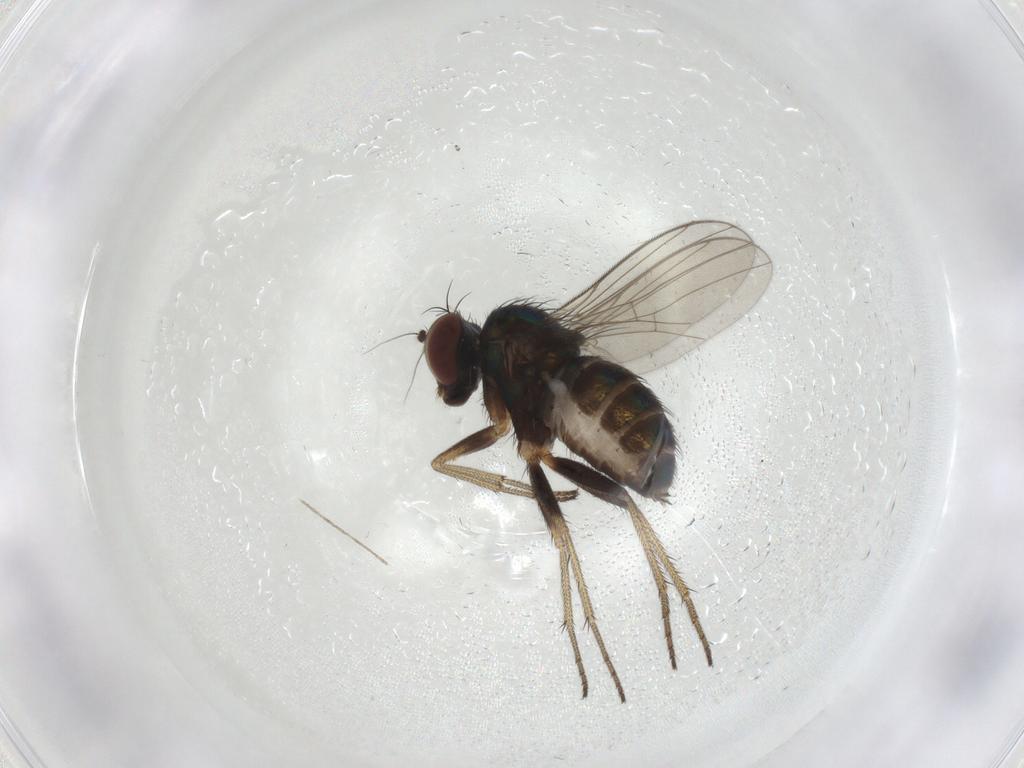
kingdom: Animalia
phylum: Arthropoda
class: Insecta
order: Diptera
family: Dolichopodidae
